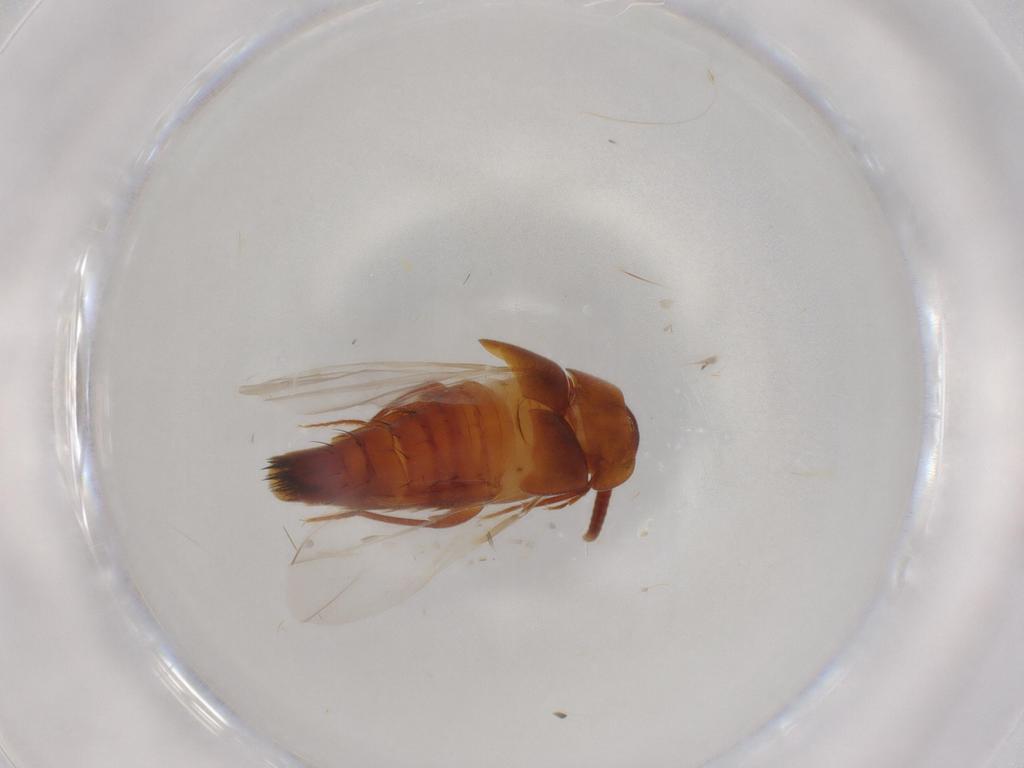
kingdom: Animalia
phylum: Arthropoda
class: Insecta
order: Coleoptera
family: Staphylinidae
